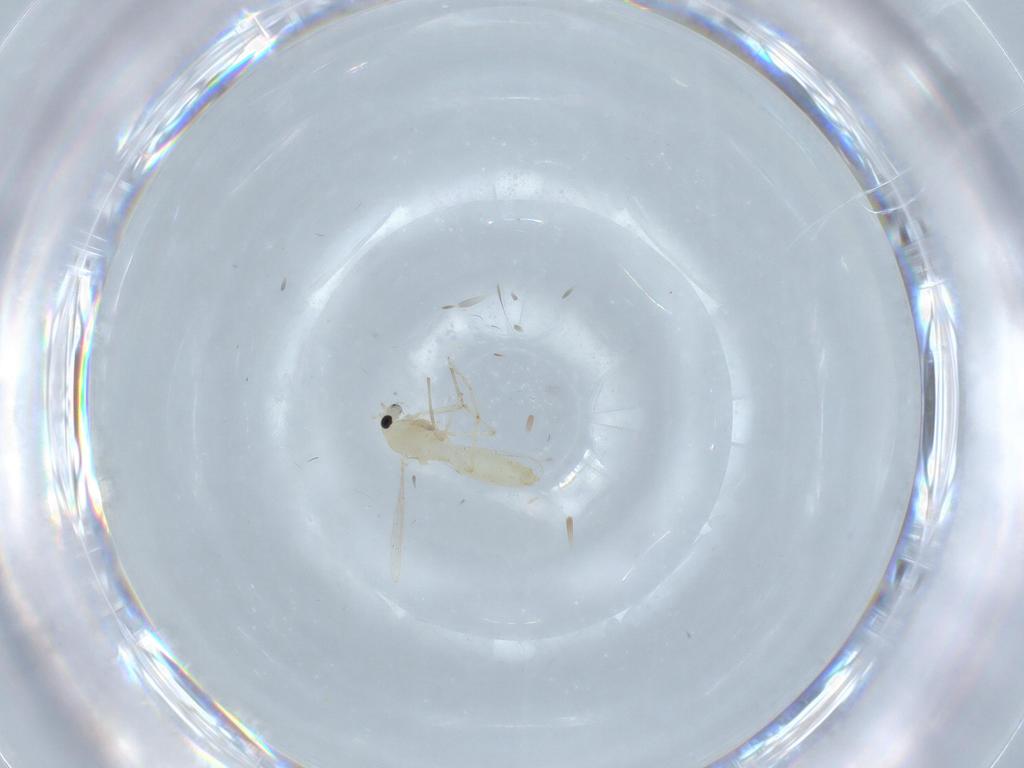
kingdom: Animalia
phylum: Arthropoda
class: Insecta
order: Diptera
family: Chironomidae
